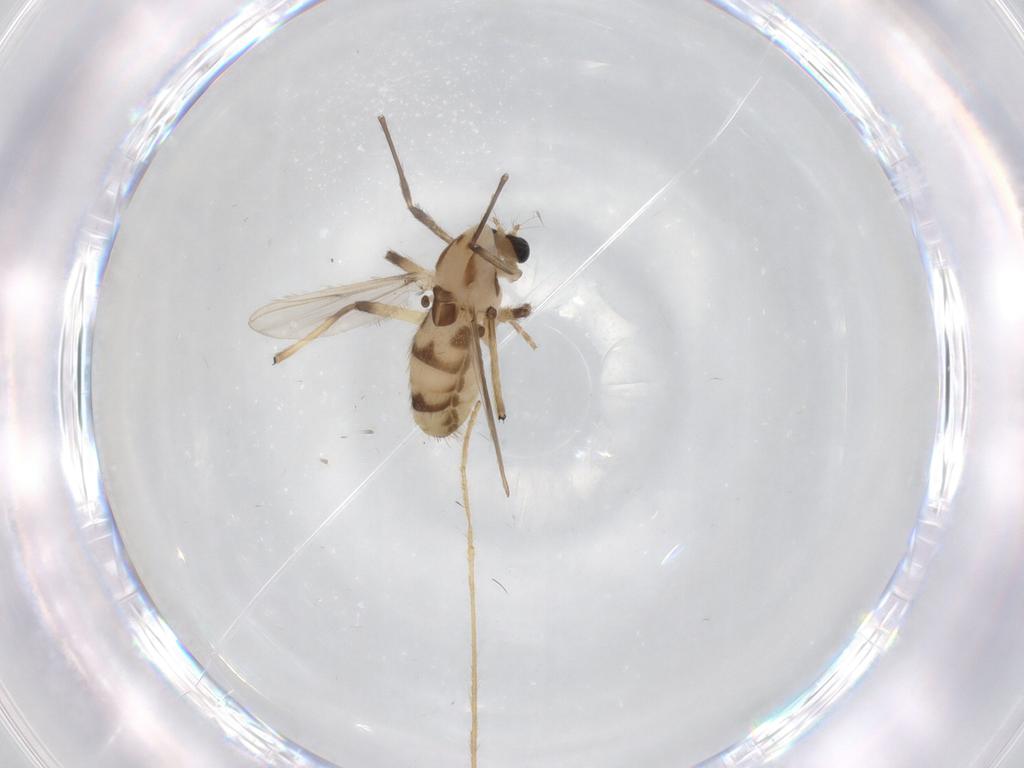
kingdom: Animalia
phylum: Arthropoda
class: Insecta
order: Diptera
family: Chironomidae
